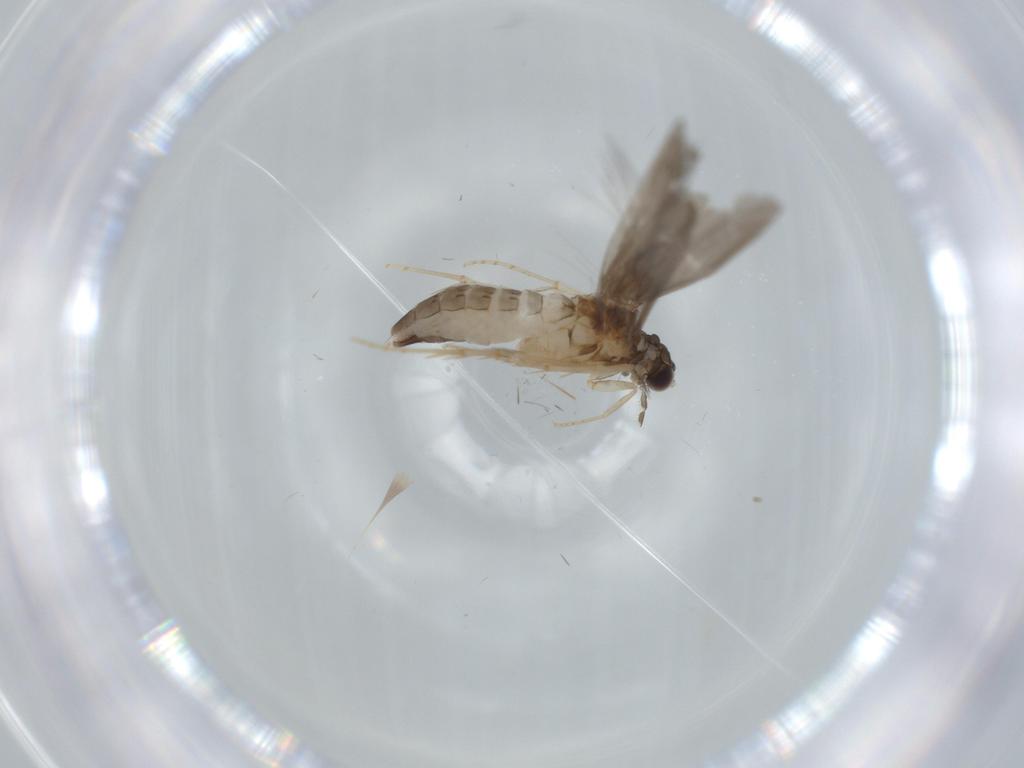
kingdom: Animalia
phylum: Arthropoda
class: Insecta
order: Trichoptera
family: Hydroptilidae
